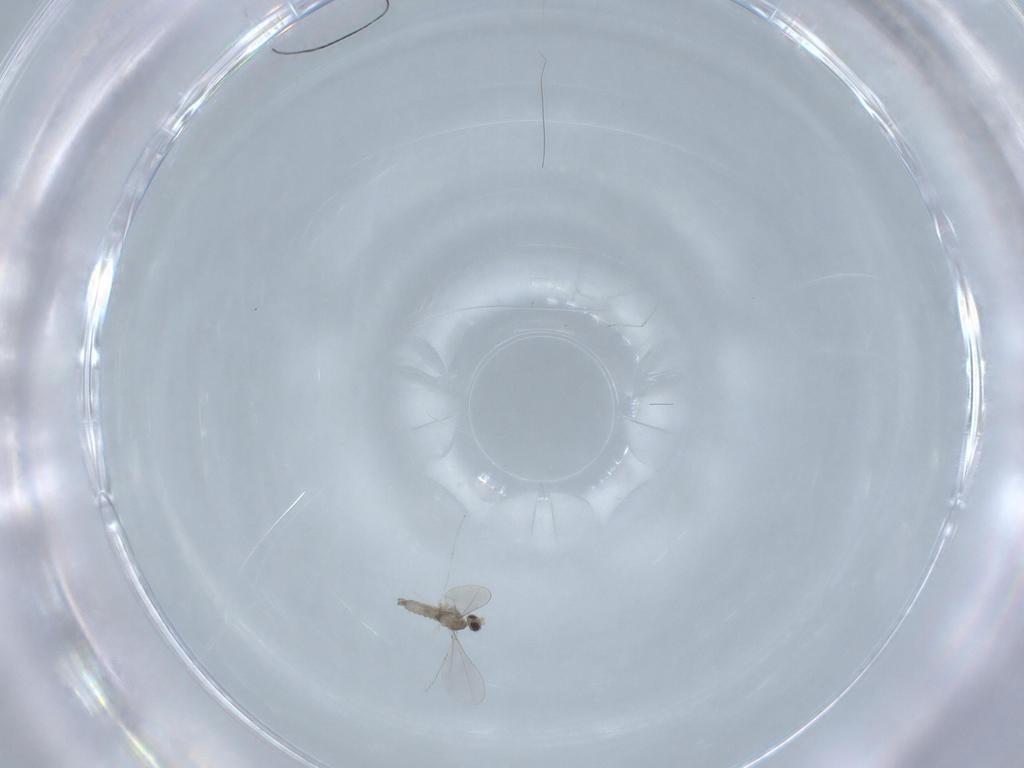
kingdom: Animalia
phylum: Arthropoda
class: Insecta
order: Diptera
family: Cecidomyiidae
